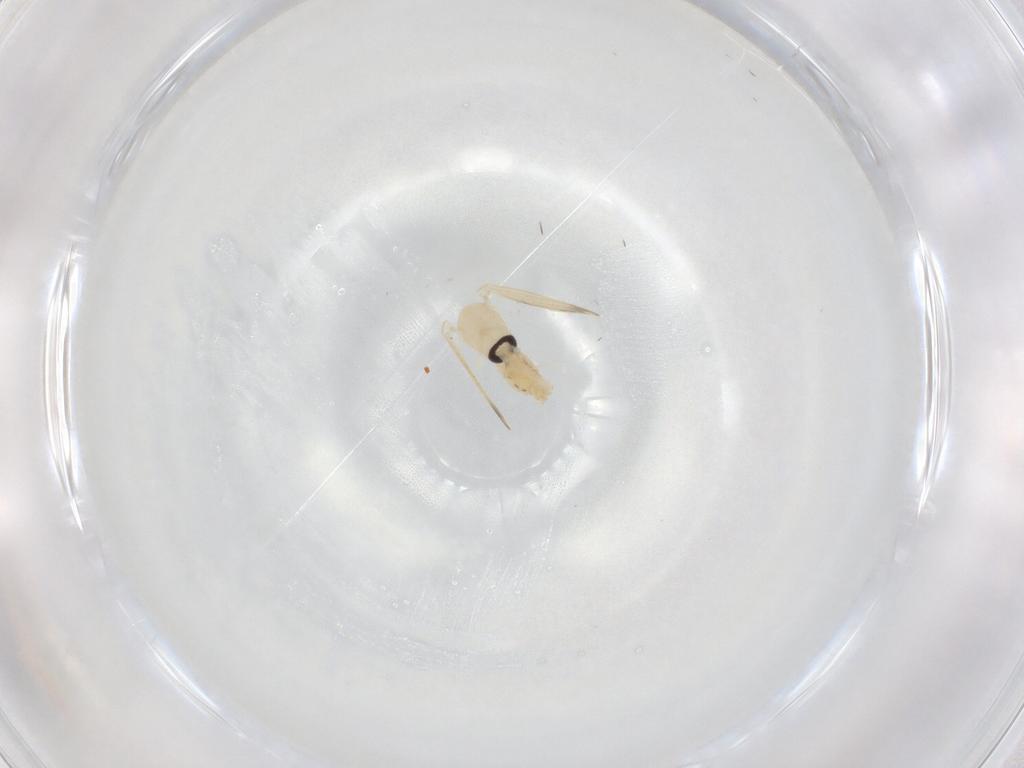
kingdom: Animalia
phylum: Arthropoda
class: Insecta
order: Diptera
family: Psychodidae
